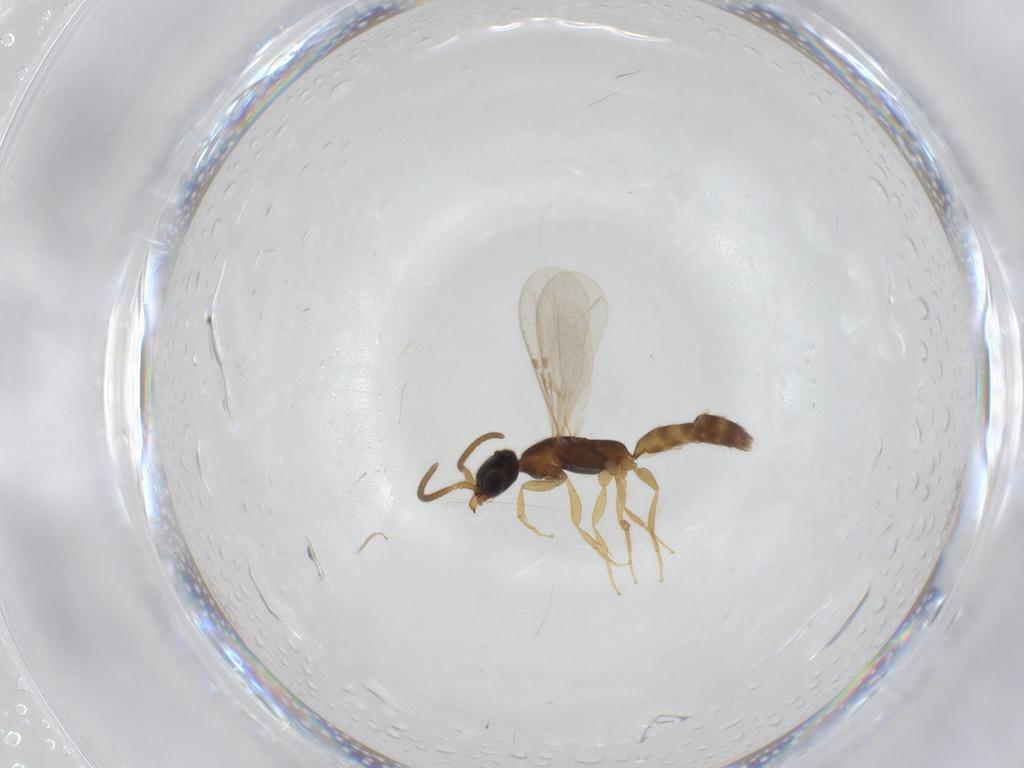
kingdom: Animalia
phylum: Arthropoda
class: Insecta
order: Hymenoptera
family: Bethylidae
